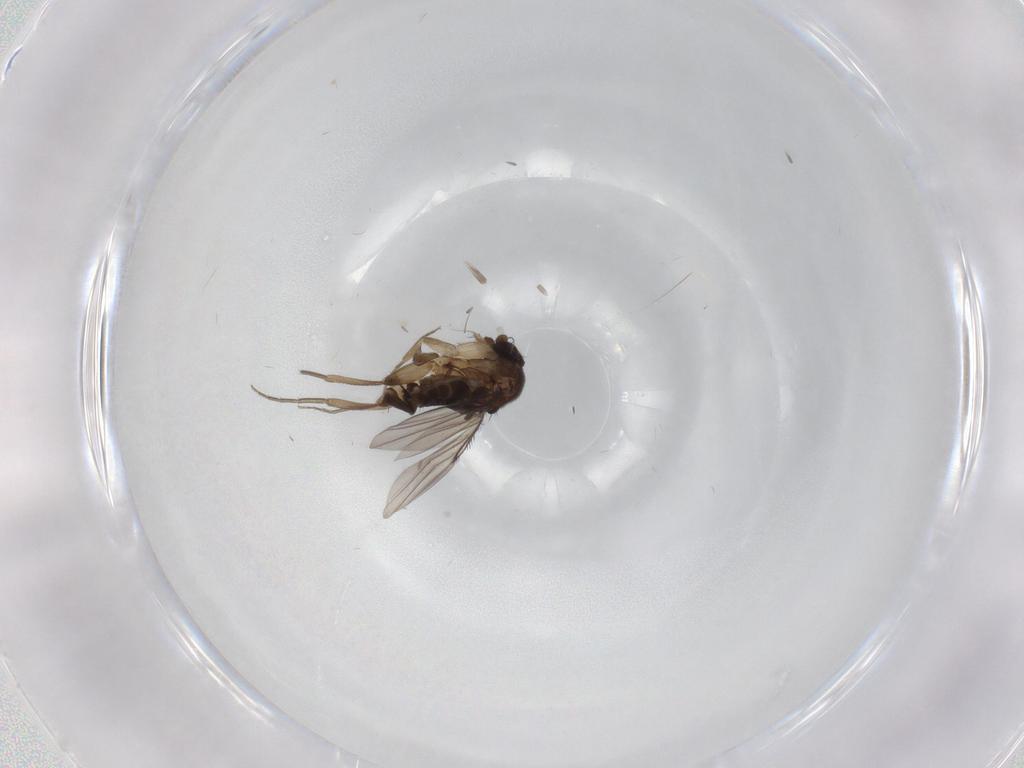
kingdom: Animalia
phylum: Arthropoda
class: Insecta
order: Diptera
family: Phoridae
